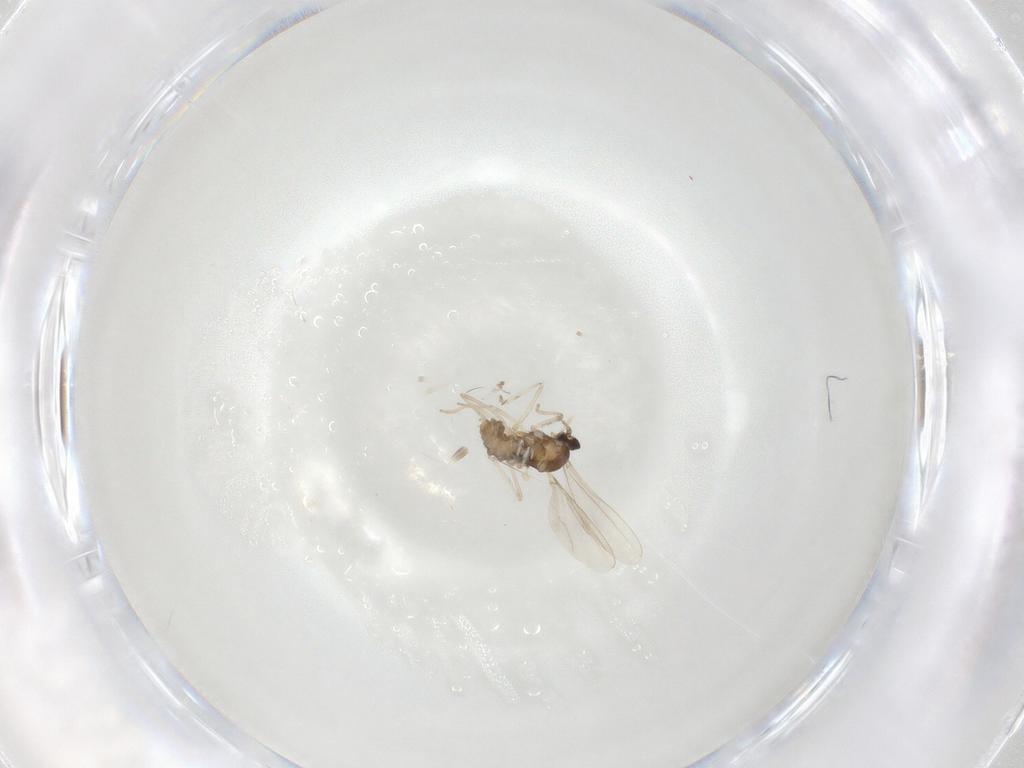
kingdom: Animalia
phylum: Arthropoda
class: Insecta
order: Diptera
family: Cecidomyiidae
